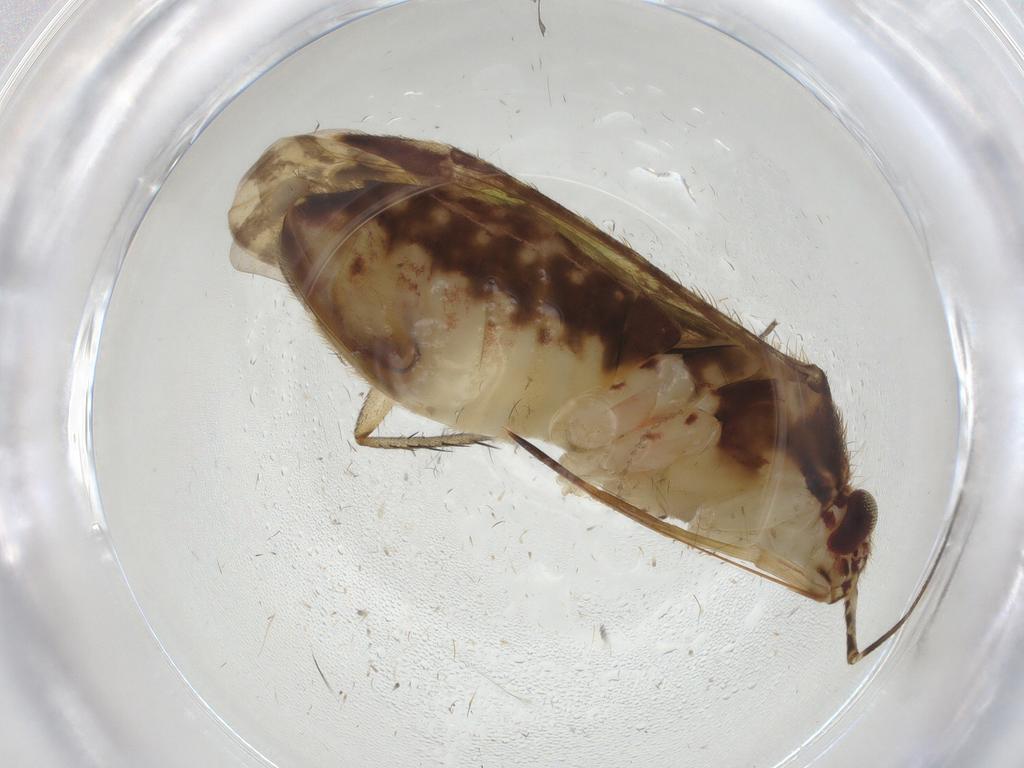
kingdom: Animalia
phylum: Arthropoda
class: Insecta
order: Hemiptera
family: Miridae
